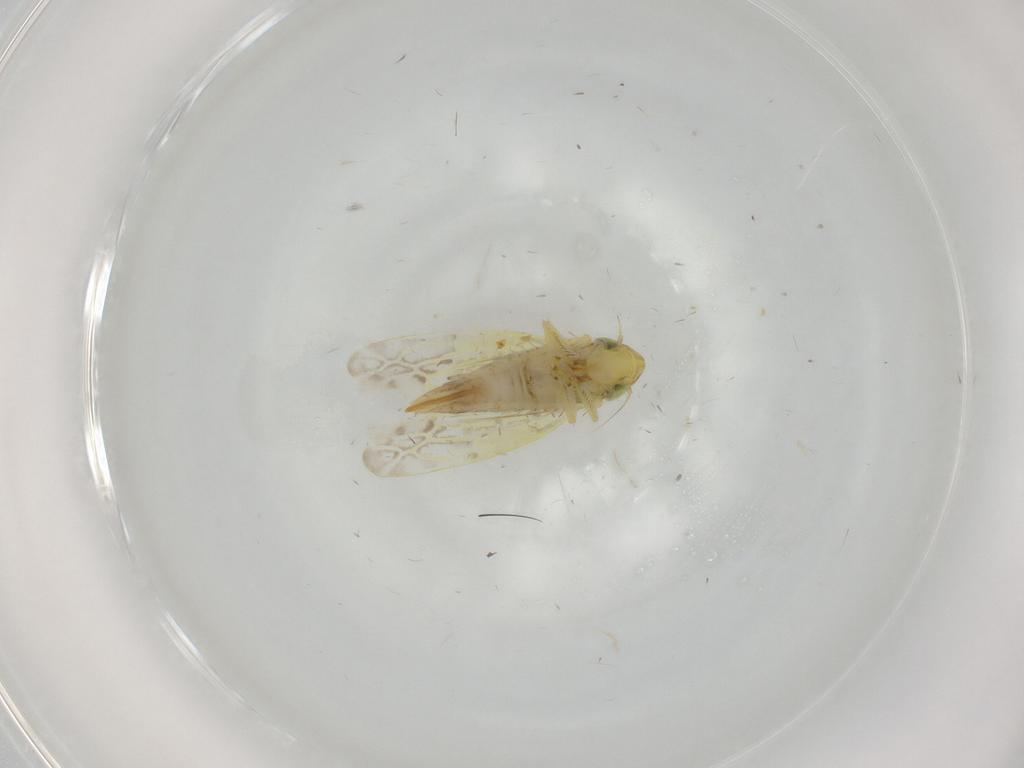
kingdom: Animalia
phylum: Arthropoda
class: Insecta
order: Hemiptera
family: Cicadellidae
